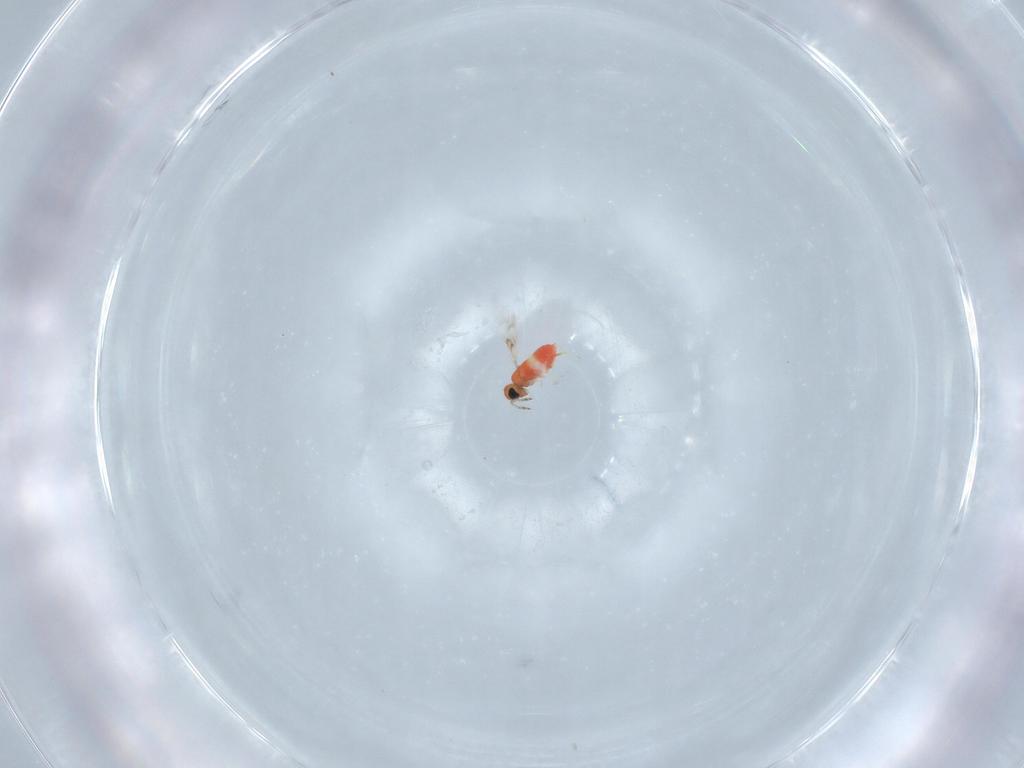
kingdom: Animalia
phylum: Arthropoda
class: Insecta
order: Hymenoptera
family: Trichogrammatidae
